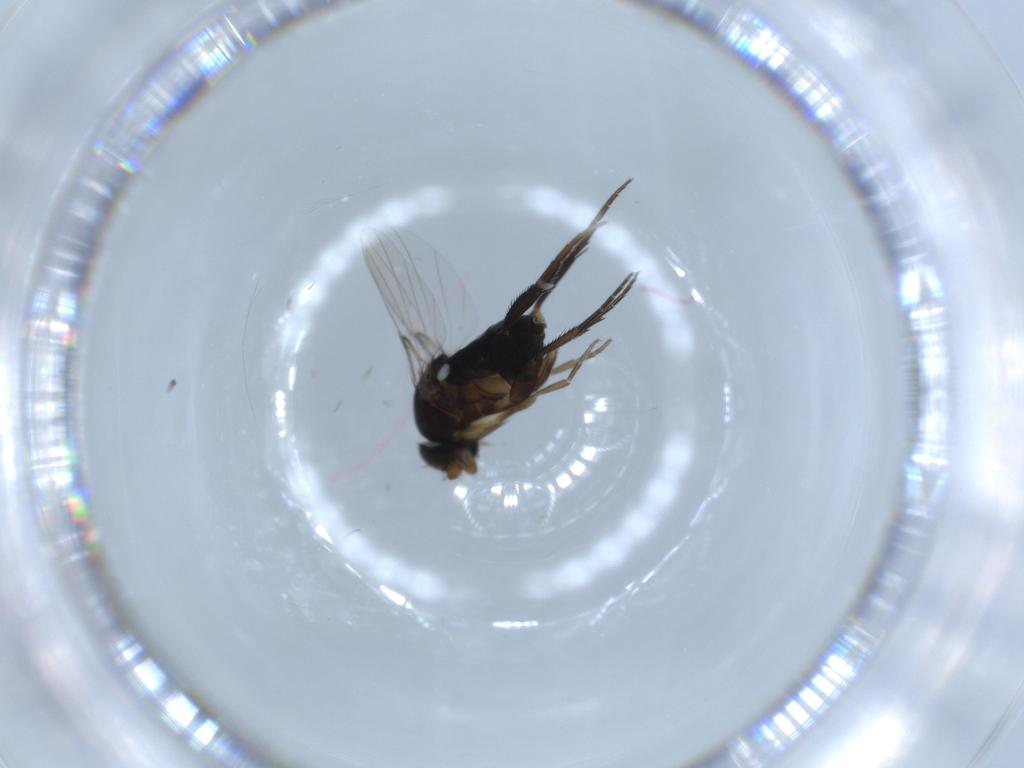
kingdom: Animalia
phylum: Arthropoda
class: Insecta
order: Diptera
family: Phoridae
